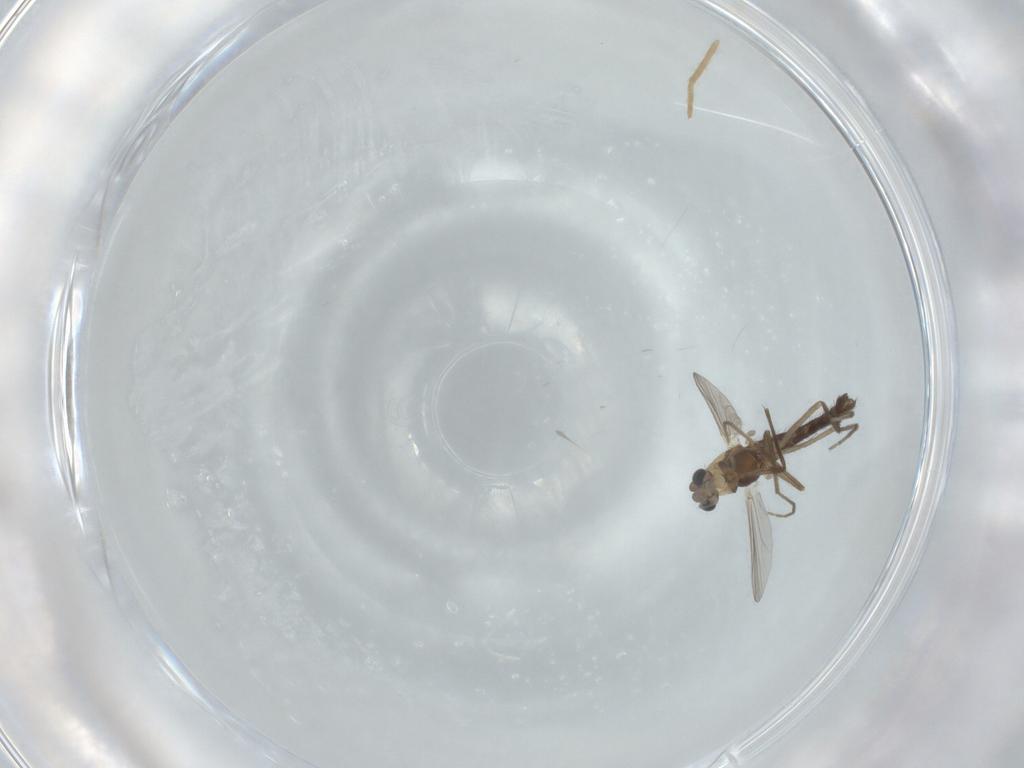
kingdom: Animalia
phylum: Arthropoda
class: Insecta
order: Diptera
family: Chironomidae
